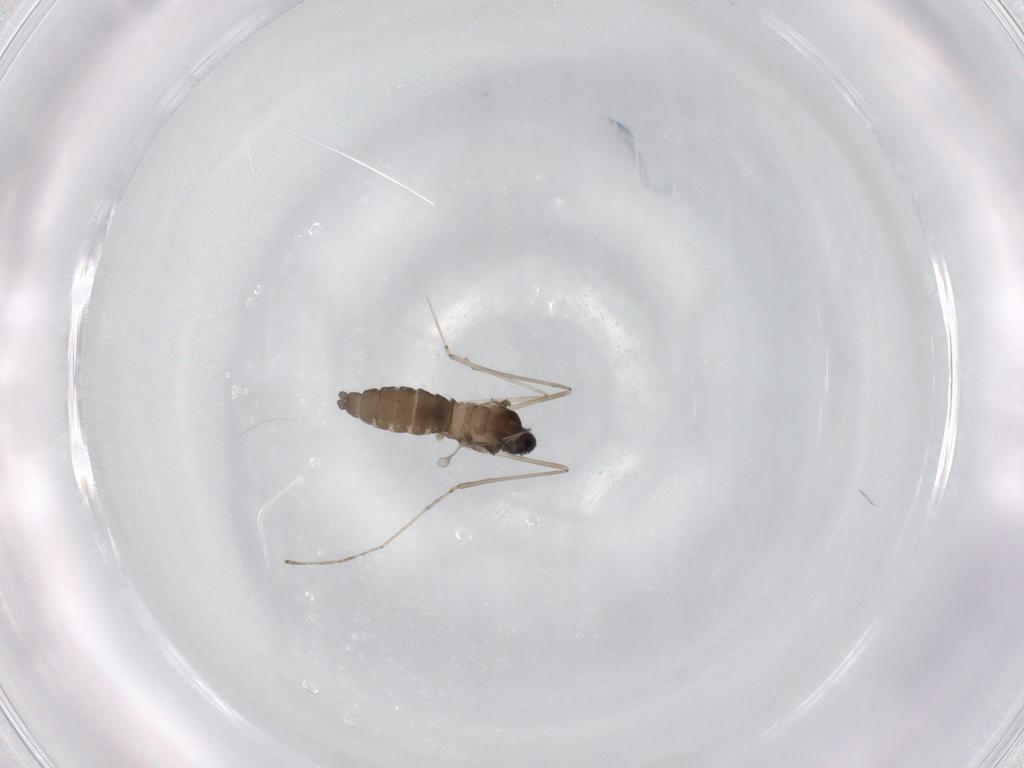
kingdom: Animalia
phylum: Arthropoda
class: Insecta
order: Diptera
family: Cecidomyiidae
